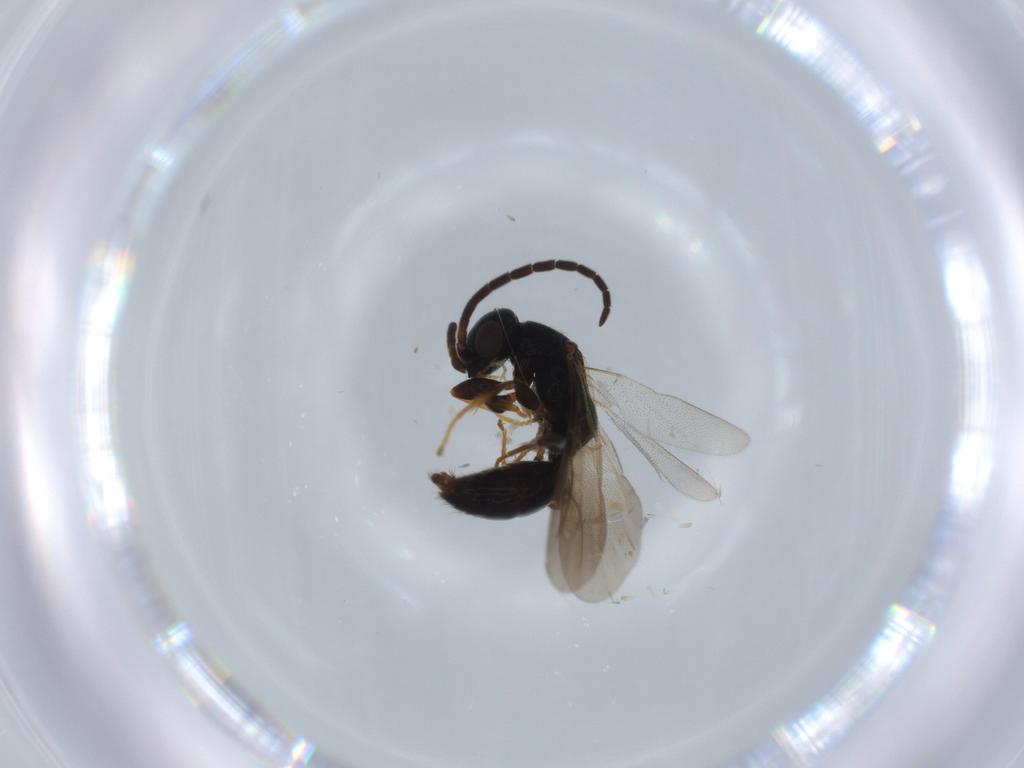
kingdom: Animalia
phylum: Arthropoda
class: Insecta
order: Hymenoptera
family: Bethylidae
